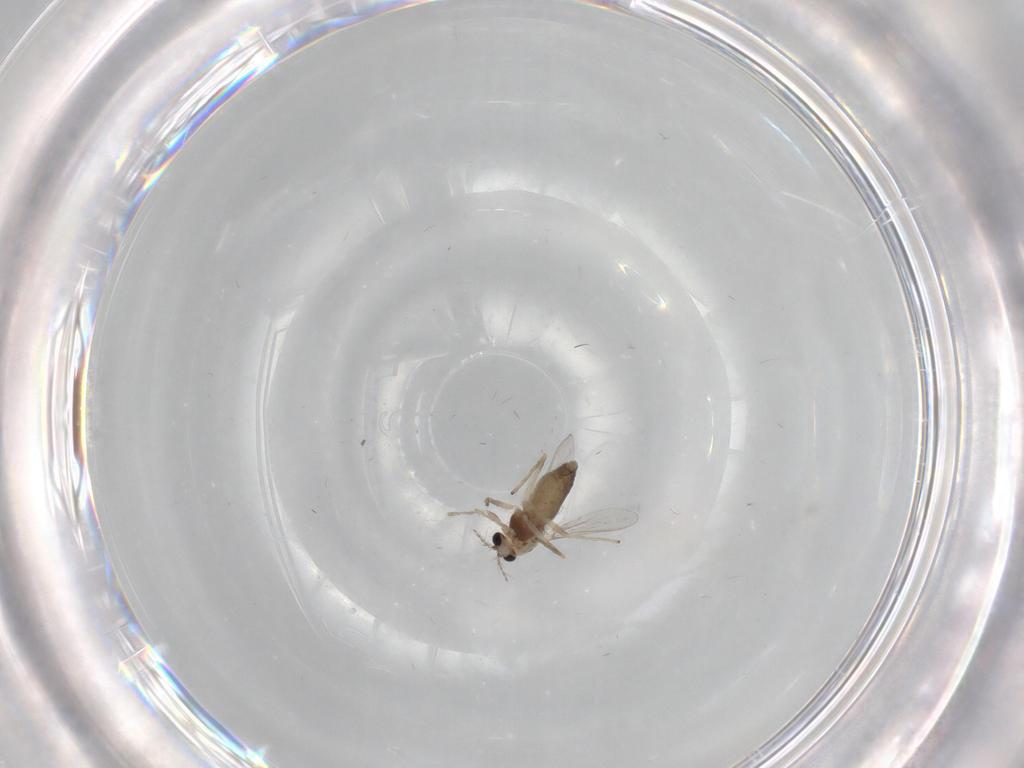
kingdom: Animalia
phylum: Arthropoda
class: Insecta
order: Diptera
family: Chironomidae
